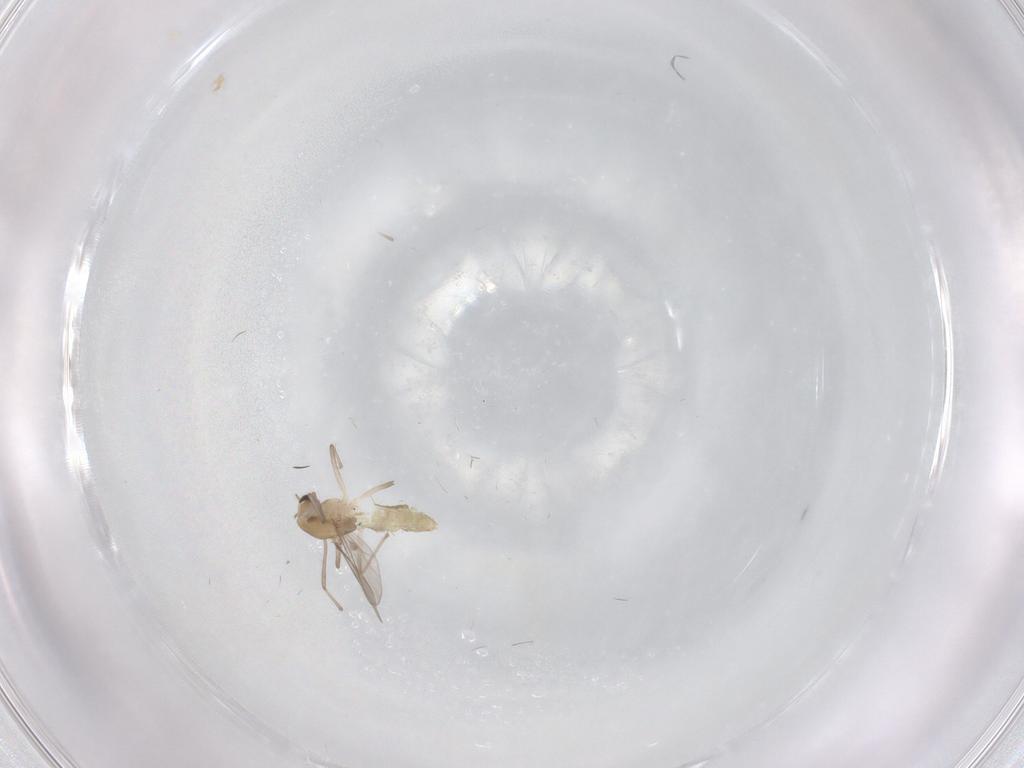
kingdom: Animalia
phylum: Arthropoda
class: Insecta
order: Diptera
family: Chironomidae
